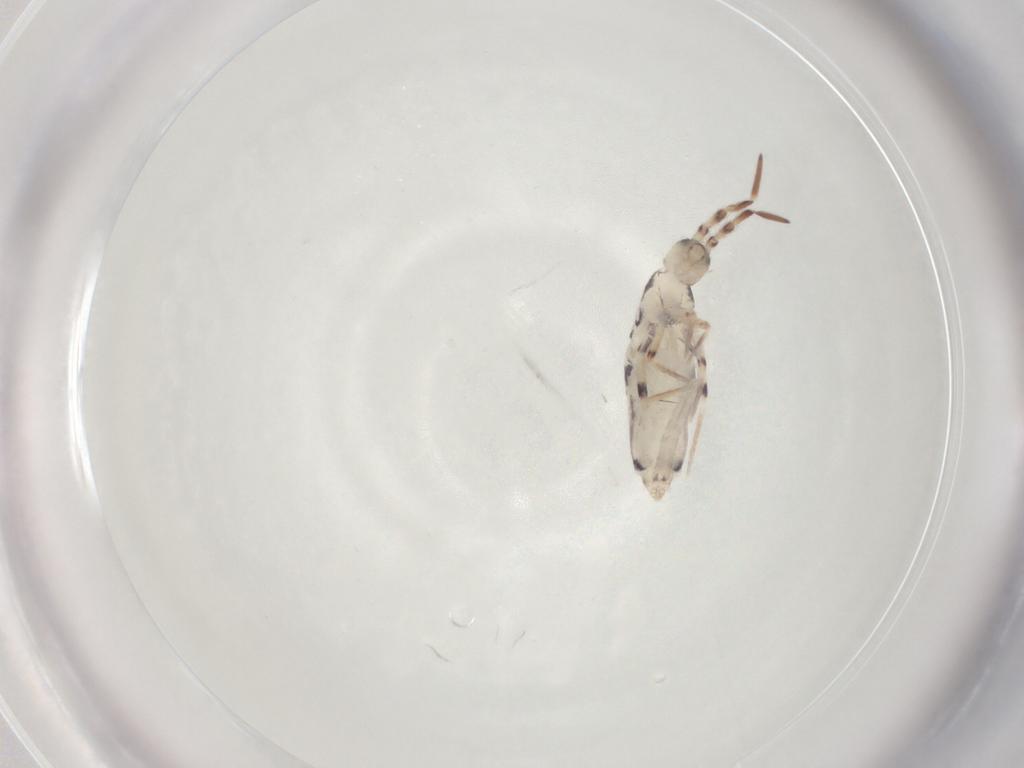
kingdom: Animalia
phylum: Arthropoda
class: Collembola
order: Entomobryomorpha
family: Entomobryidae
